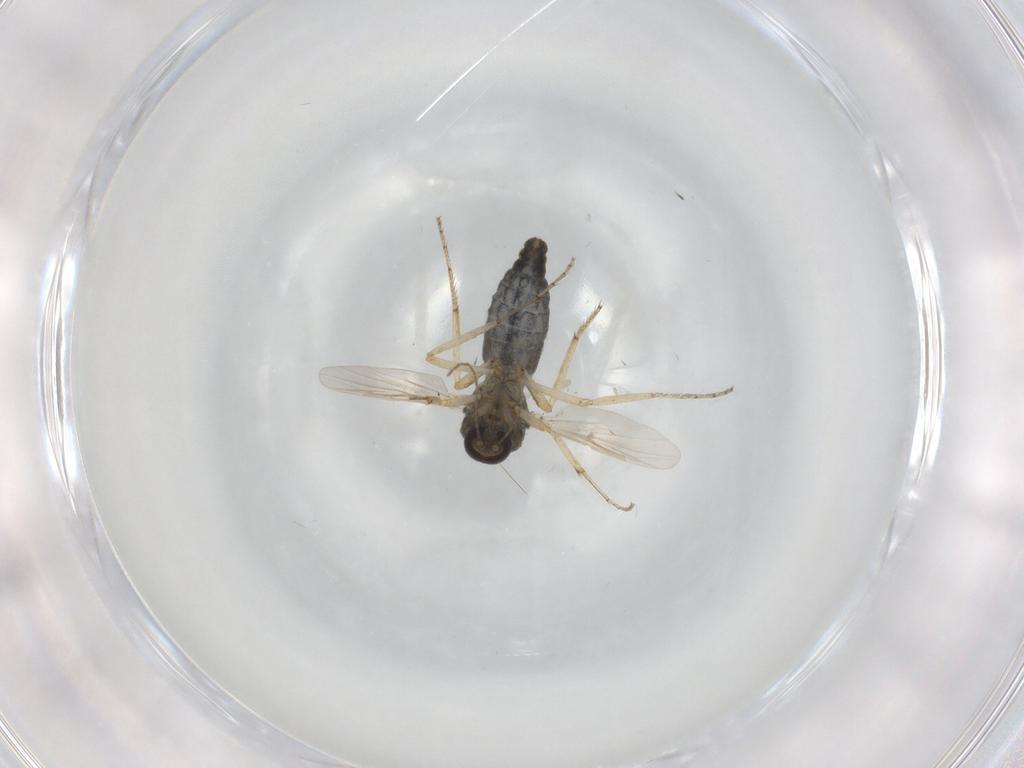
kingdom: Animalia
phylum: Arthropoda
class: Insecta
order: Diptera
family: Ceratopogonidae
